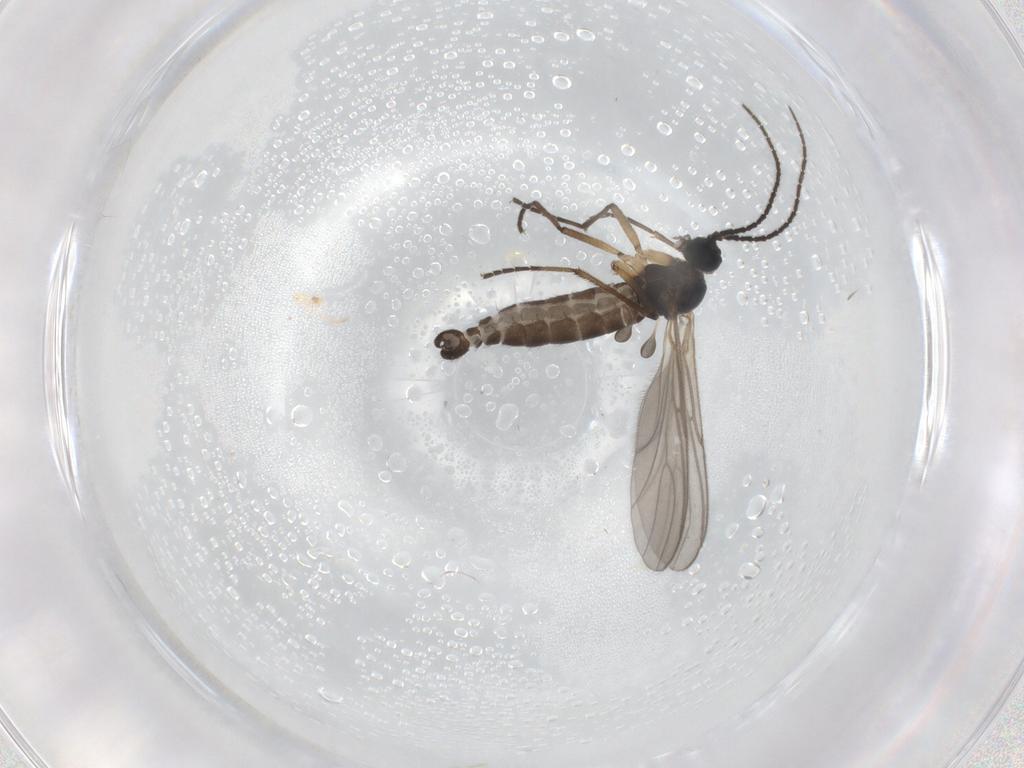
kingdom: Animalia
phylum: Arthropoda
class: Insecta
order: Diptera
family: Sciaridae
